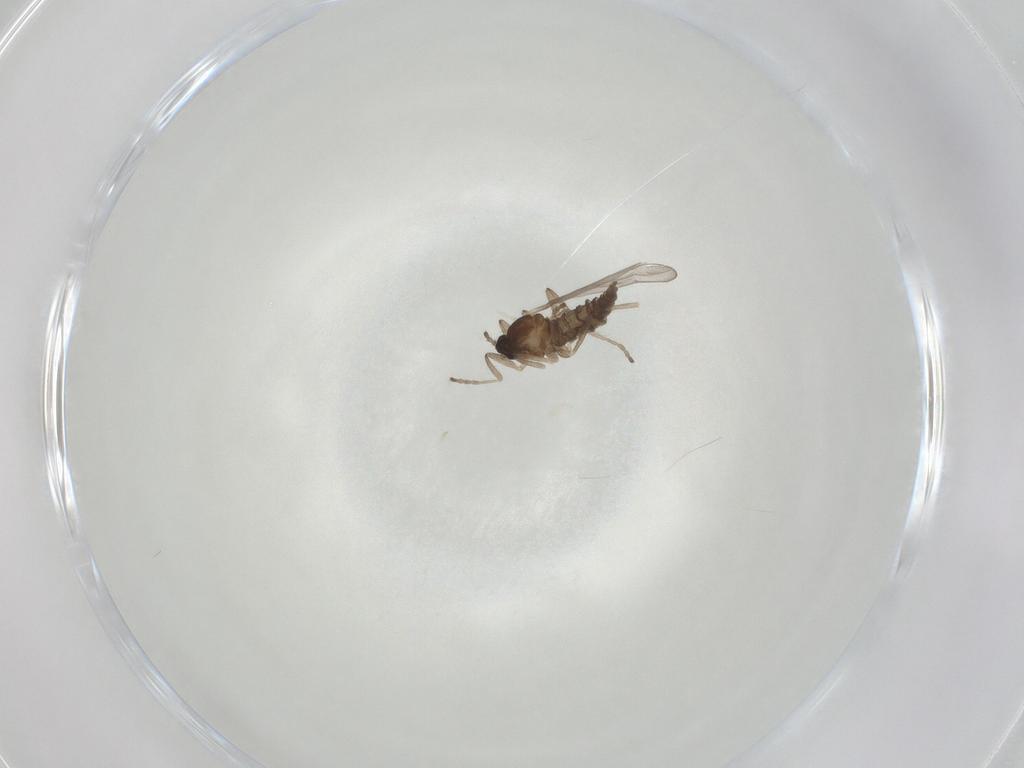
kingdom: Animalia
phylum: Arthropoda
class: Insecta
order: Diptera
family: Cecidomyiidae
